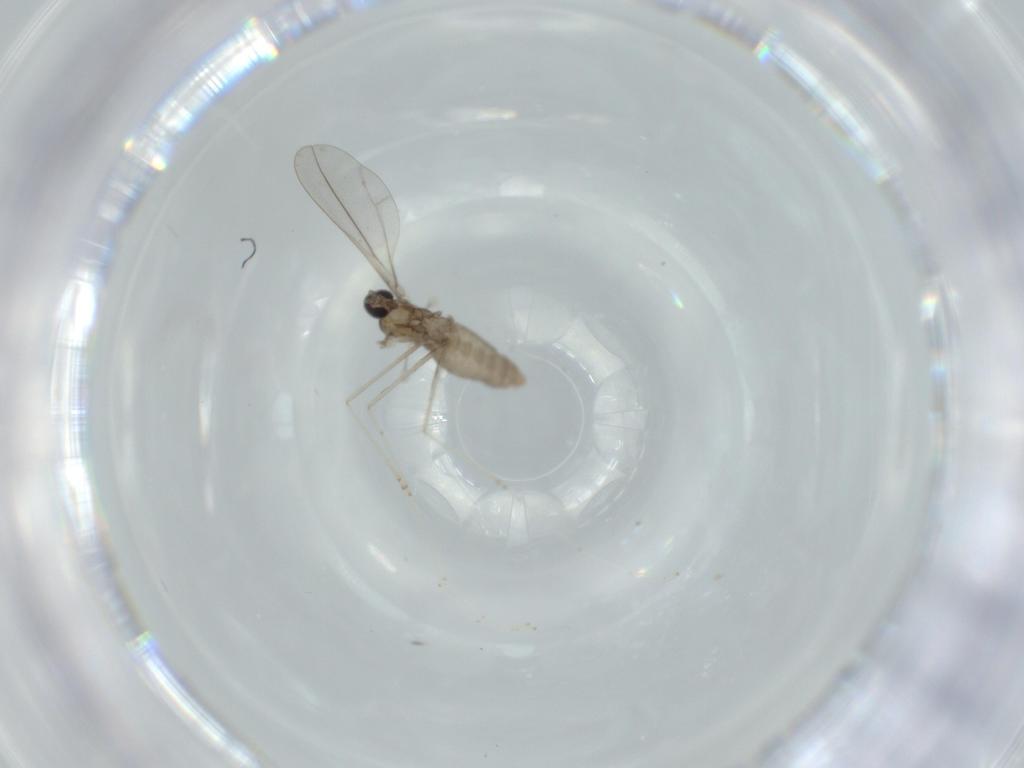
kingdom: Animalia
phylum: Arthropoda
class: Insecta
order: Diptera
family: Cecidomyiidae
